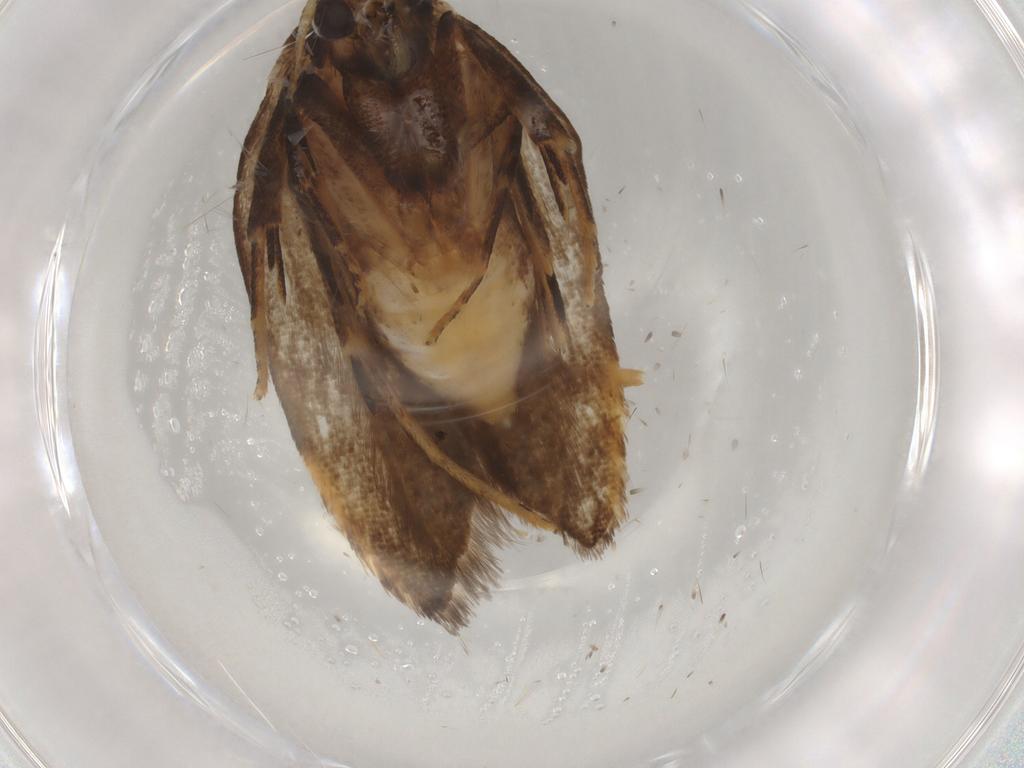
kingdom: Animalia
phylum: Arthropoda
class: Insecta
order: Lepidoptera
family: Gelechiidae
